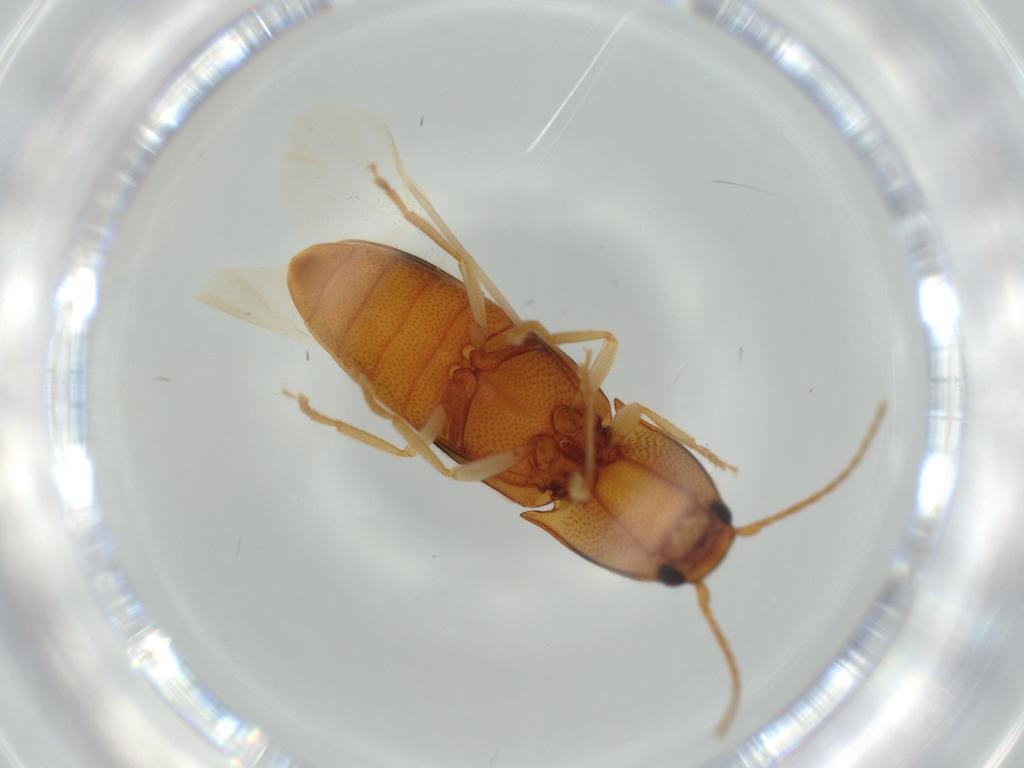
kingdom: Animalia
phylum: Arthropoda
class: Insecta
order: Coleoptera
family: Elateridae
